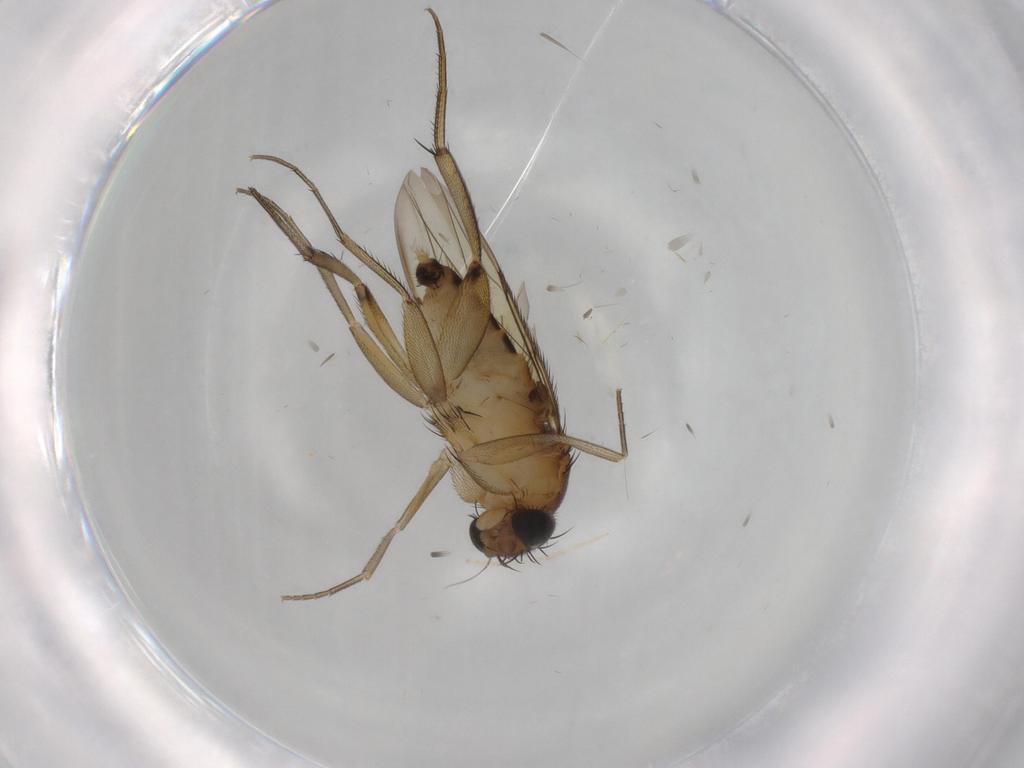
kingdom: Animalia
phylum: Arthropoda
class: Insecta
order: Diptera
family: Phoridae
